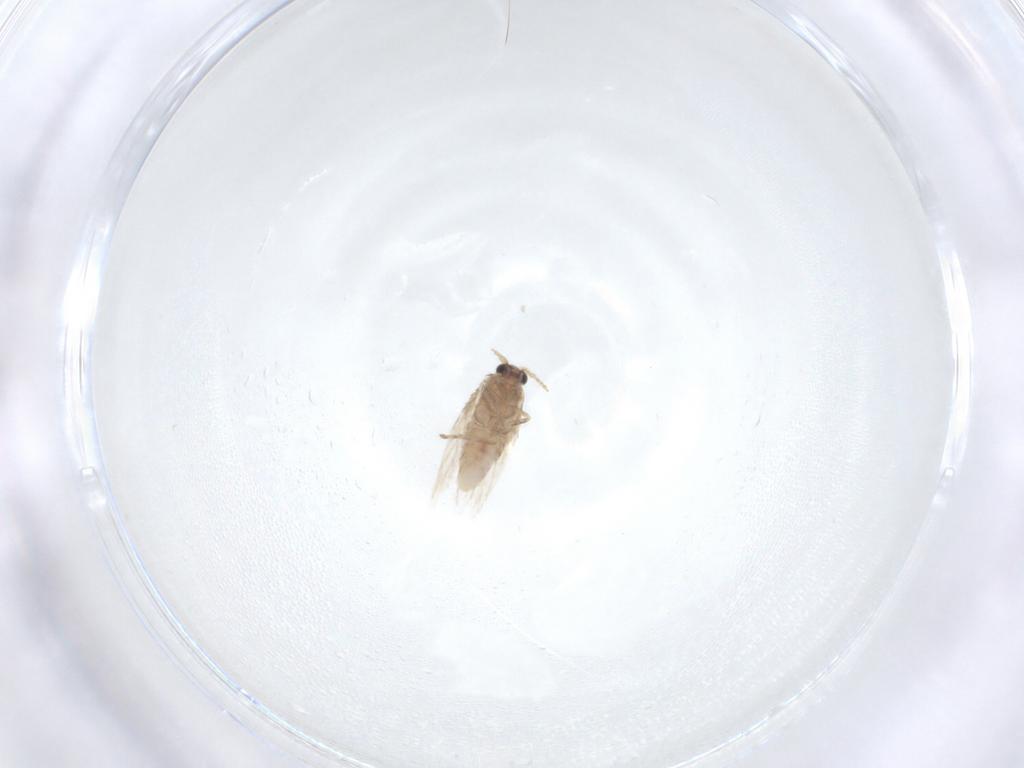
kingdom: Animalia
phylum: Arthropoda
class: Insecta
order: Lepidoptera
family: Nepticulidae
